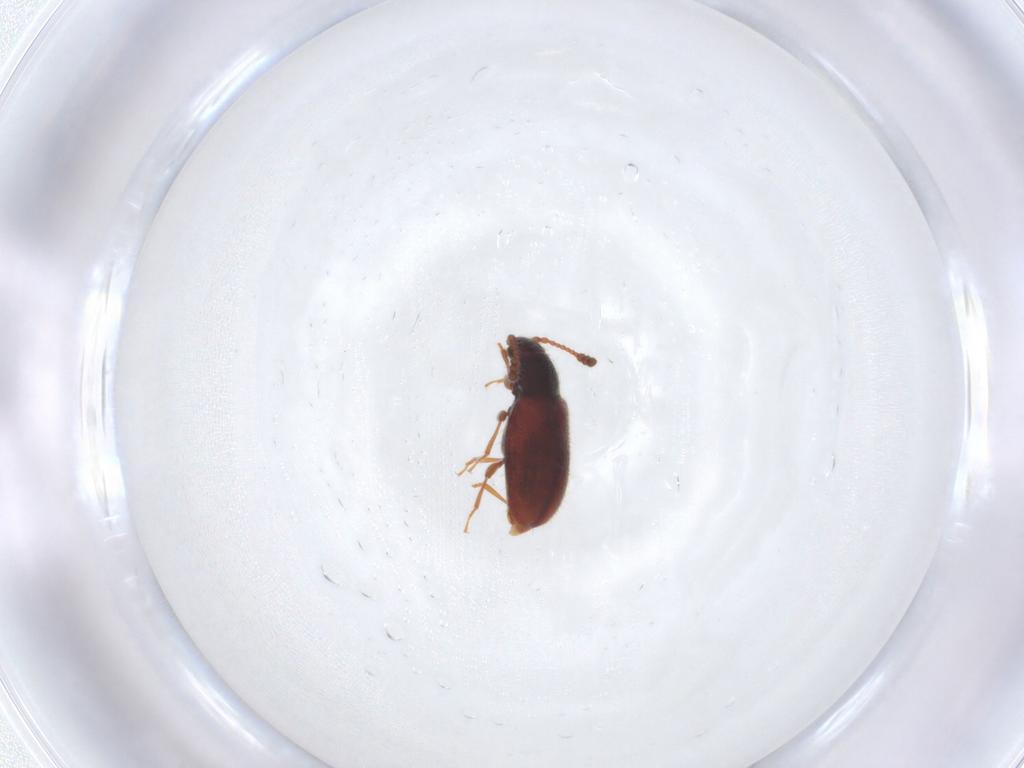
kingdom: Animalia
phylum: Arthropoda
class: Insecta
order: Coleoptera
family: Cryptophagidae
